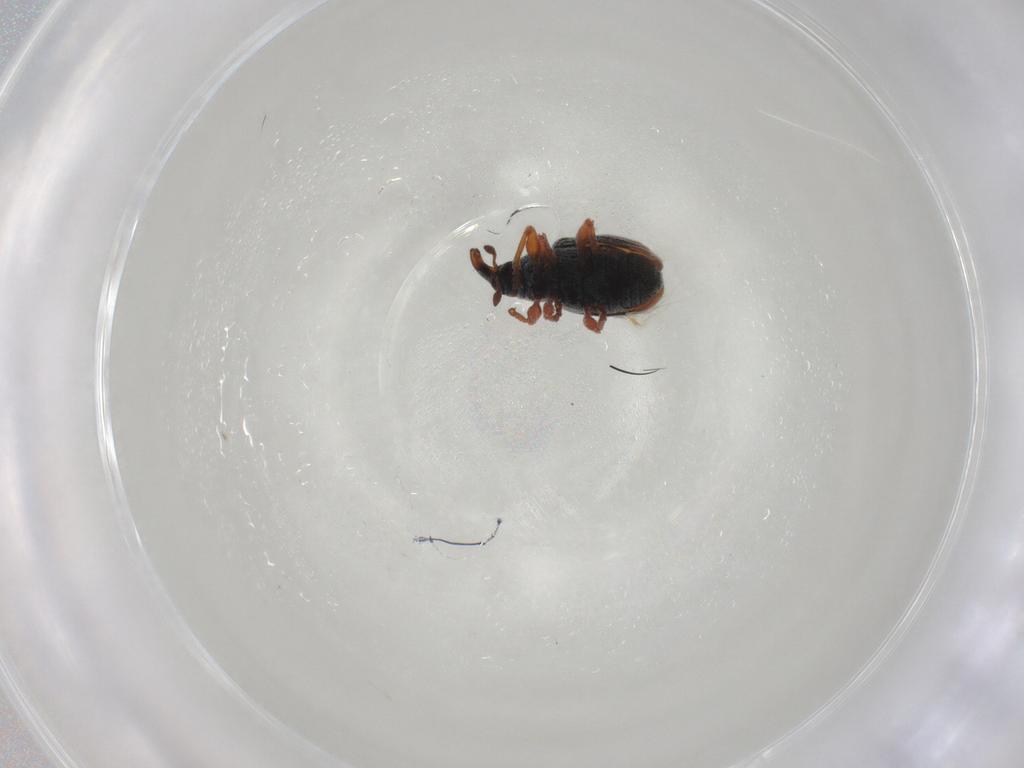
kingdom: Animalia
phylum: Arthropoda
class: Insecta
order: Coleoptera
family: Curculionidae
